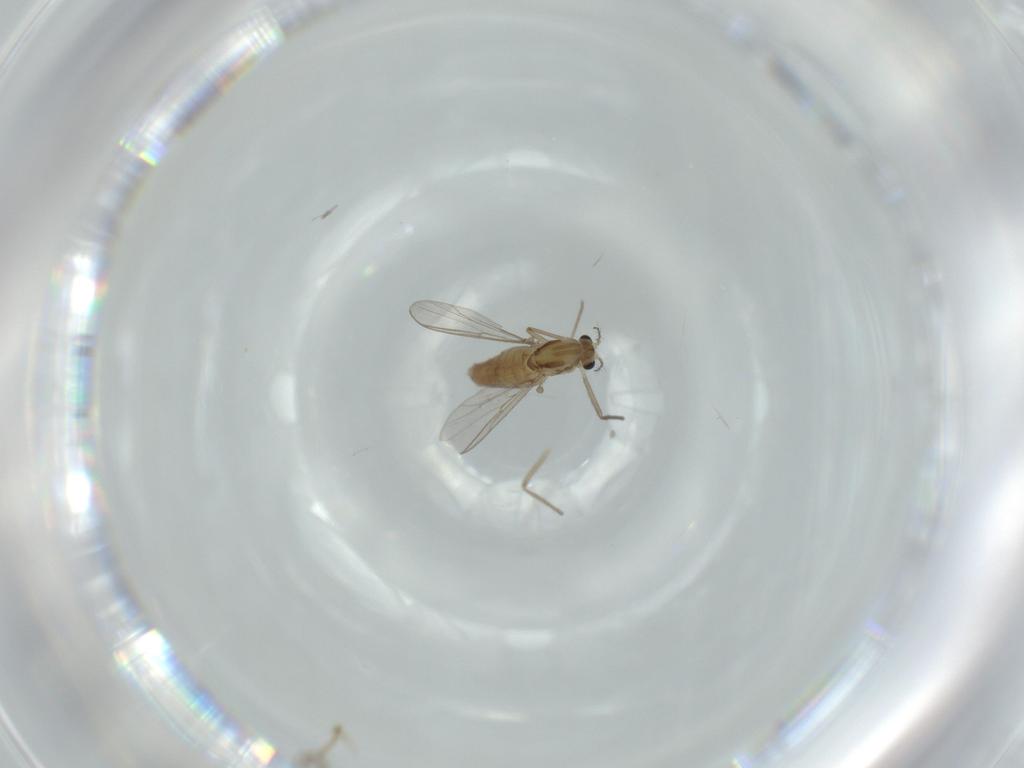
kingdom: Animalia
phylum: Arthropoda
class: Insecta
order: Diptera
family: Chironomidae
